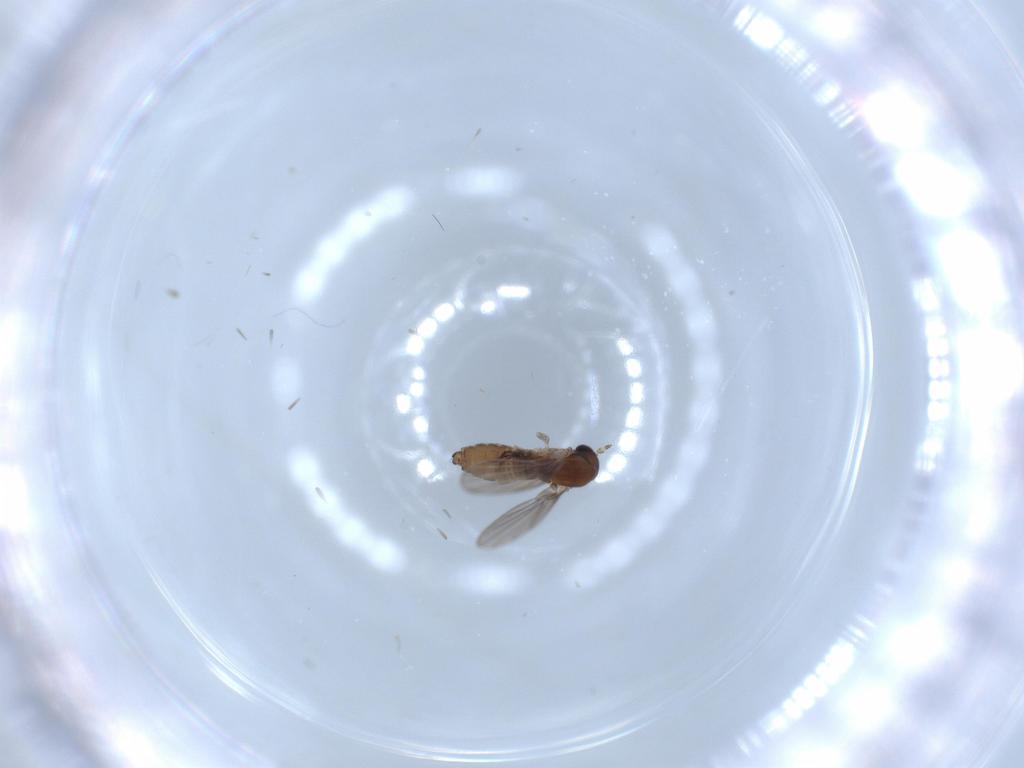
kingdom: Animalia
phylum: Arthropoda
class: Insecta
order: Diptera
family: Psychodidae
